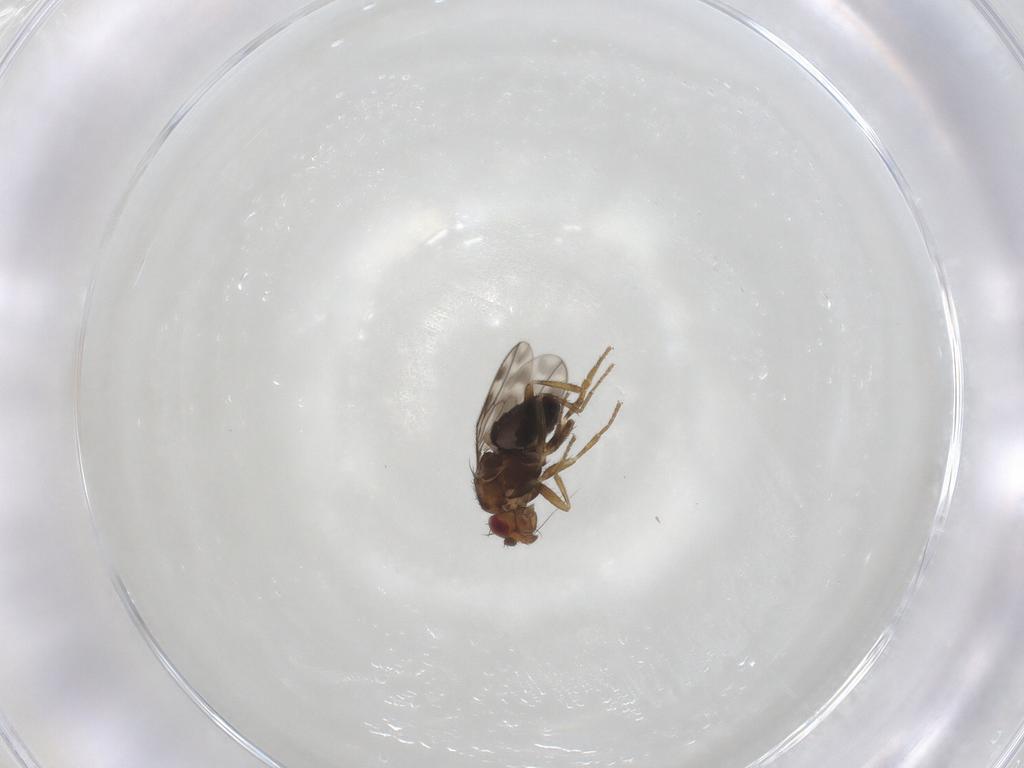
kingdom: Animalia
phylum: Arthropoda
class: Insecta
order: Diptera
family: Sphaeroceridae
